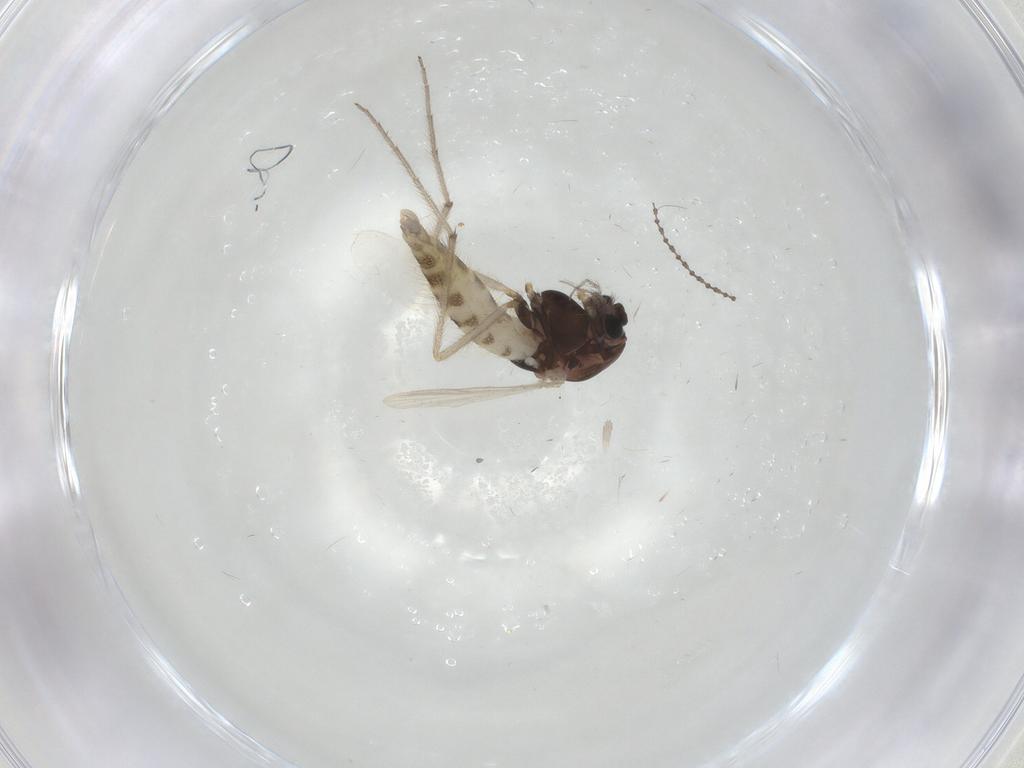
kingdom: Animalia
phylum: Arthropoda
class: Insecta
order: Diptera
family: Chironomidae
